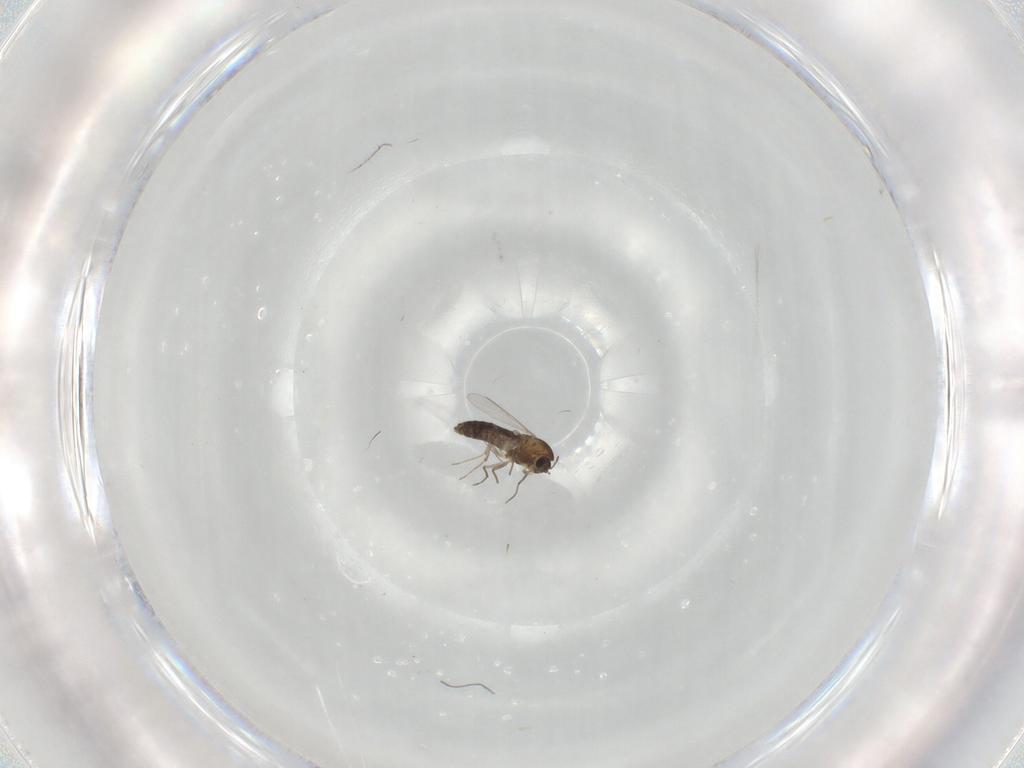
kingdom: Animalia
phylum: Arthropoda
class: Insecta
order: Diptera
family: Chironomidae
